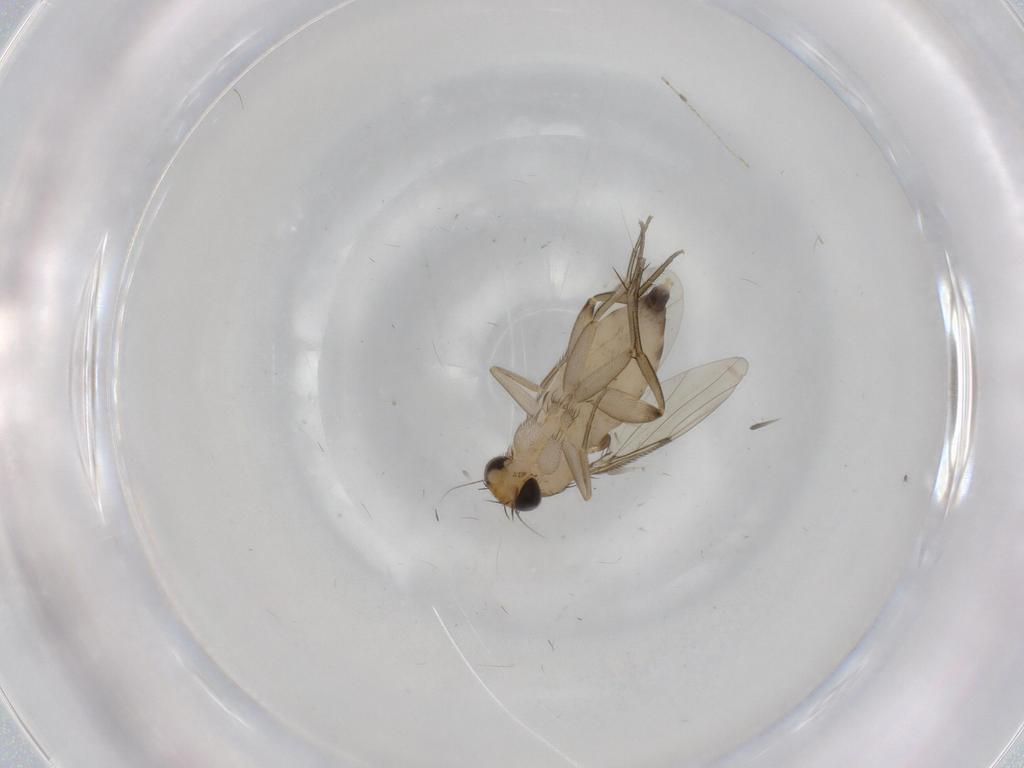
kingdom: Animalia
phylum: Arthropoda
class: Insecta
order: Diptera
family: Phoridae
